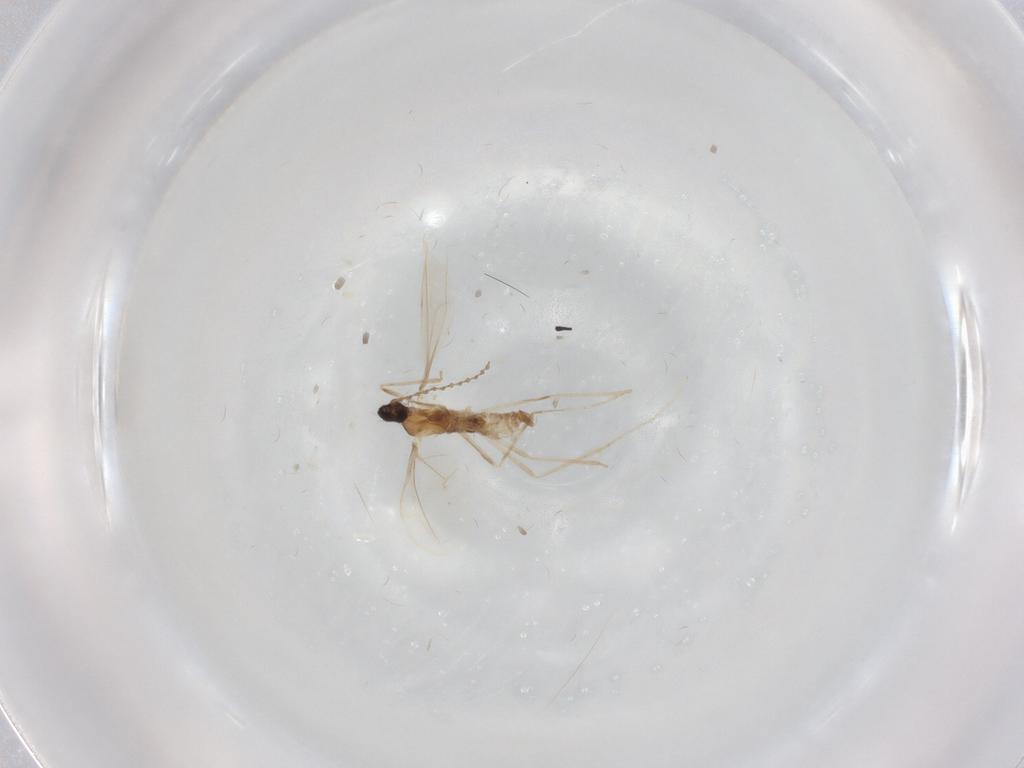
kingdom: Animalia
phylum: Arthropoda
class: Insecta
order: Diptera
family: Cecidomyiidae
